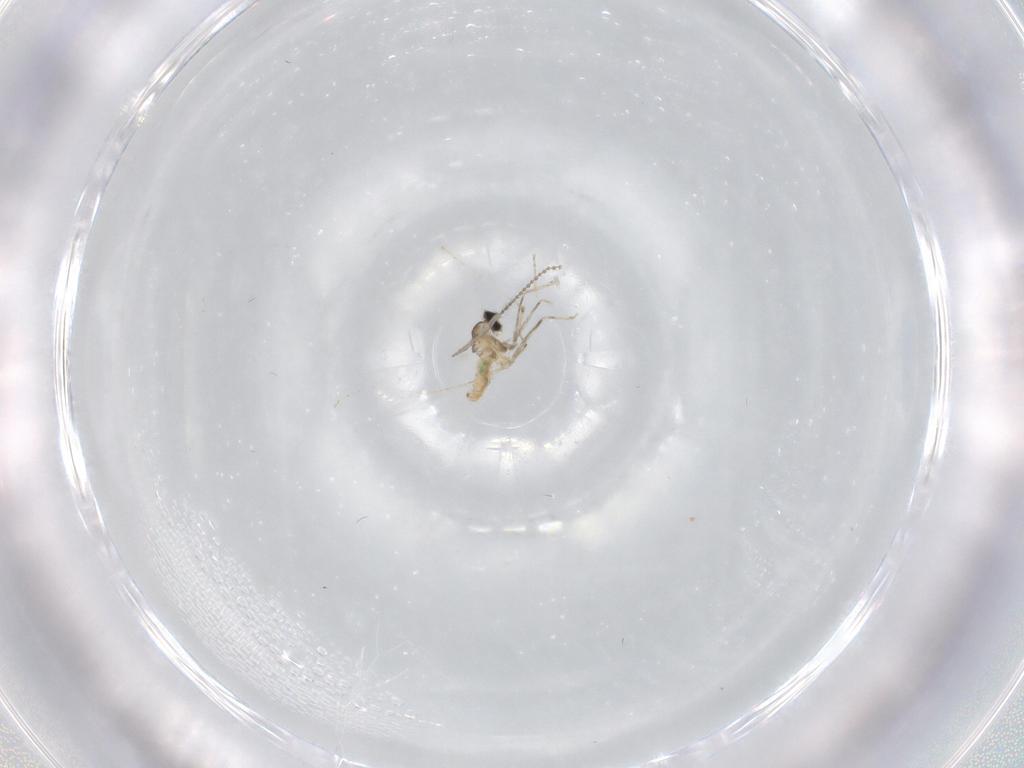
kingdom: Animalia
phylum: Arthropoda
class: Insecta
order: Diptera
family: Cecidomyiidae
